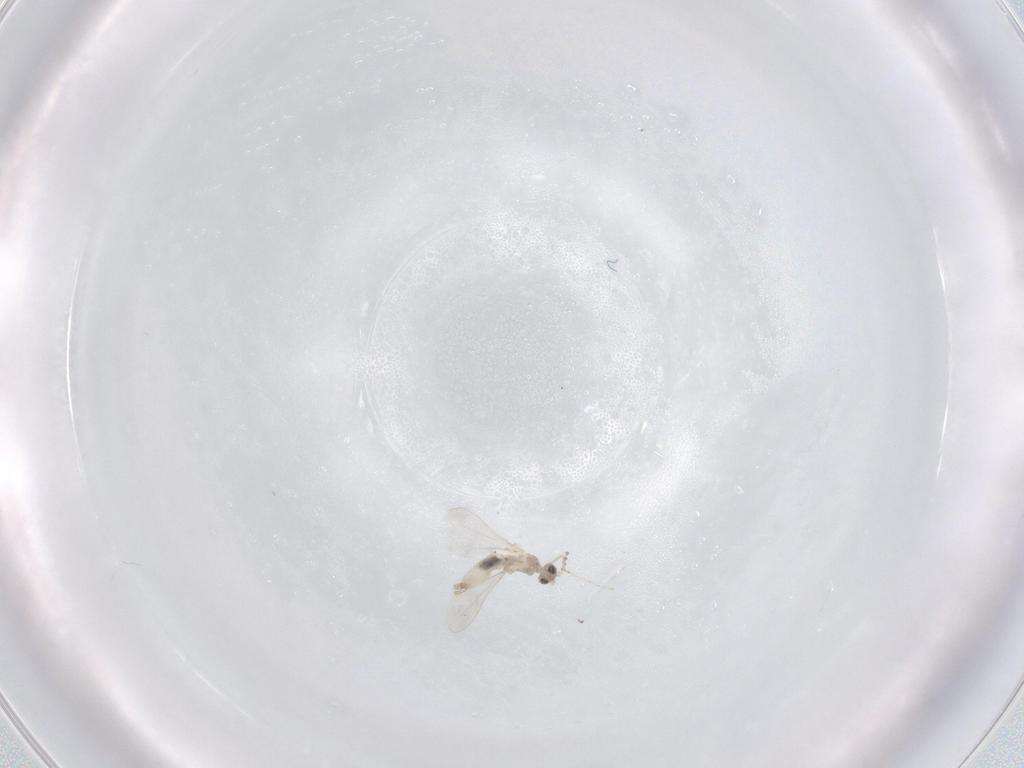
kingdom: Animalia
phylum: Arthropoda
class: Insecta
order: Diptera
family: Cecidomyiidae
